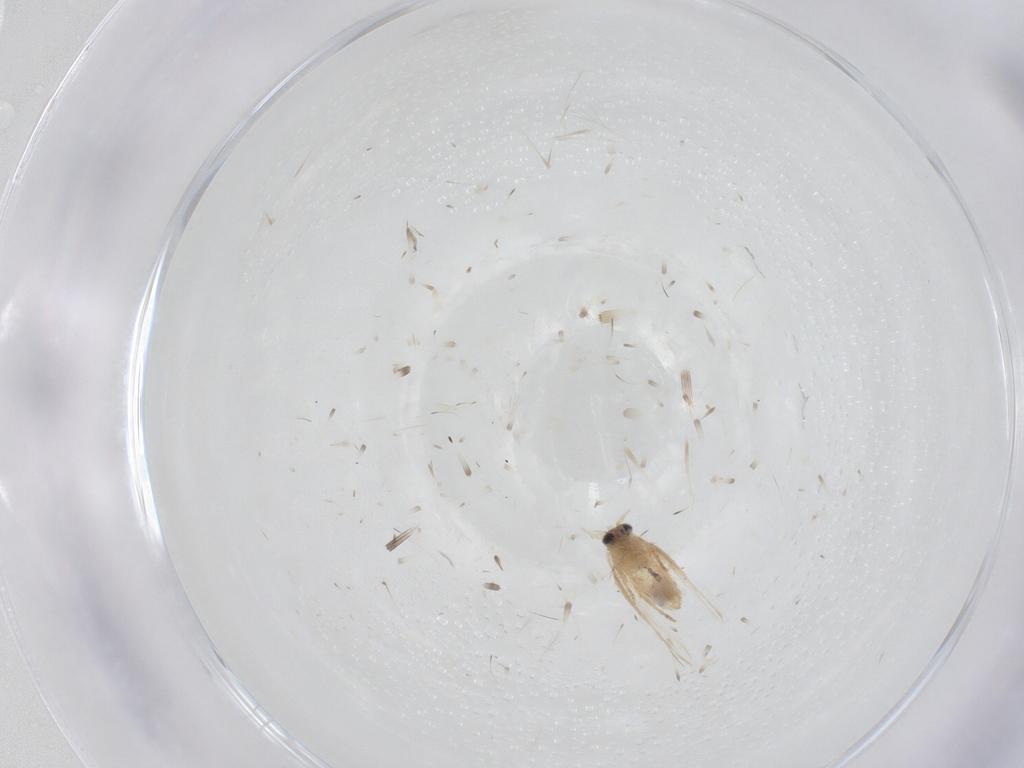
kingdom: Animalia
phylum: Arthropoda
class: Insecta
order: Lepidoptera
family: Nepticulidae
